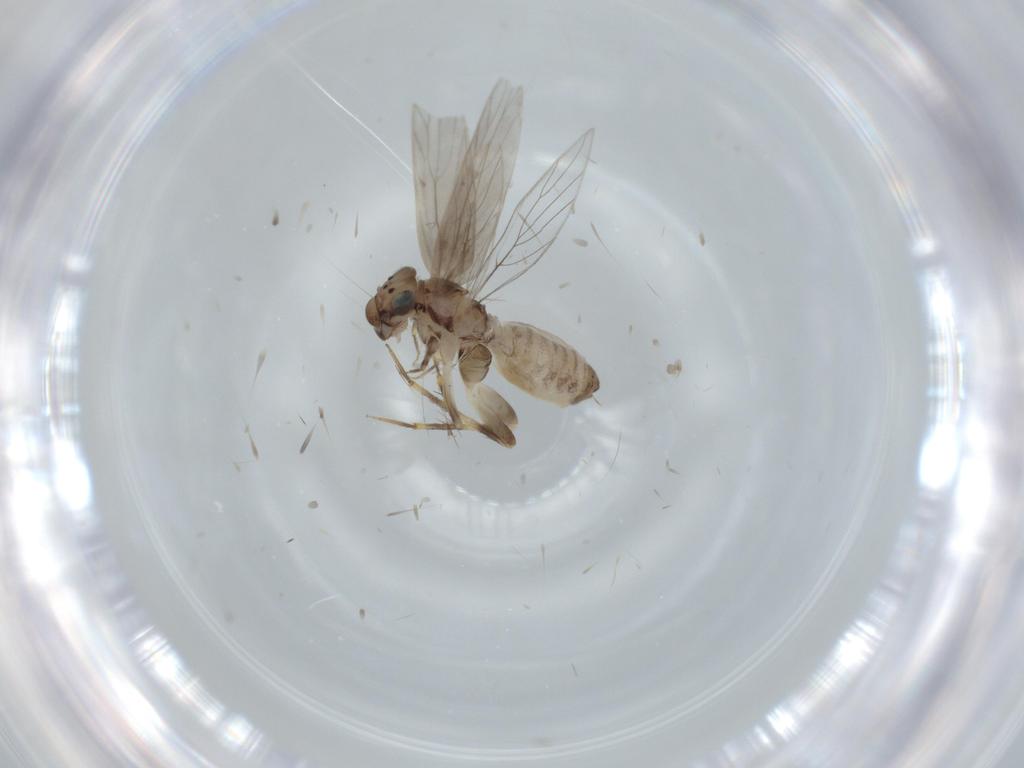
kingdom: Animalia
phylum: Arthropoda
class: Insecta
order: Psocodea
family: Lepidopsocidae
